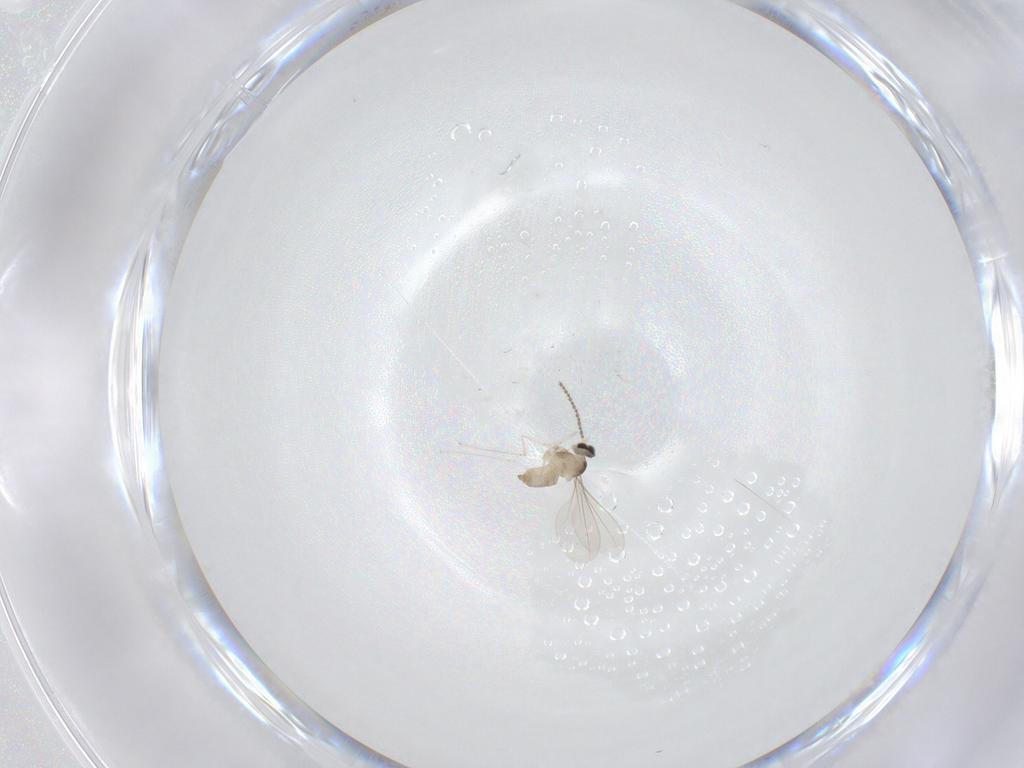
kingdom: Animalia
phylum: Arthropoda
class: Insecta
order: Diptera
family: Cecidomyiidae
